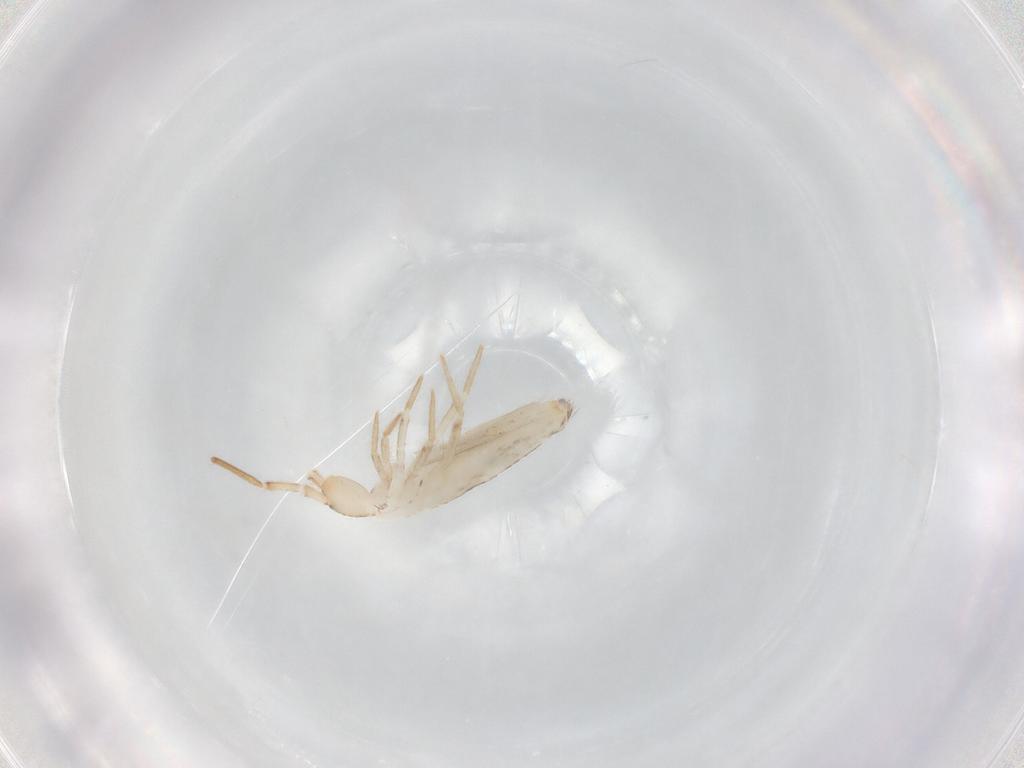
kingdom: Animalia
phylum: Arthropoda
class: Collembola
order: Entomobryomorpha
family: Entomobryidae
